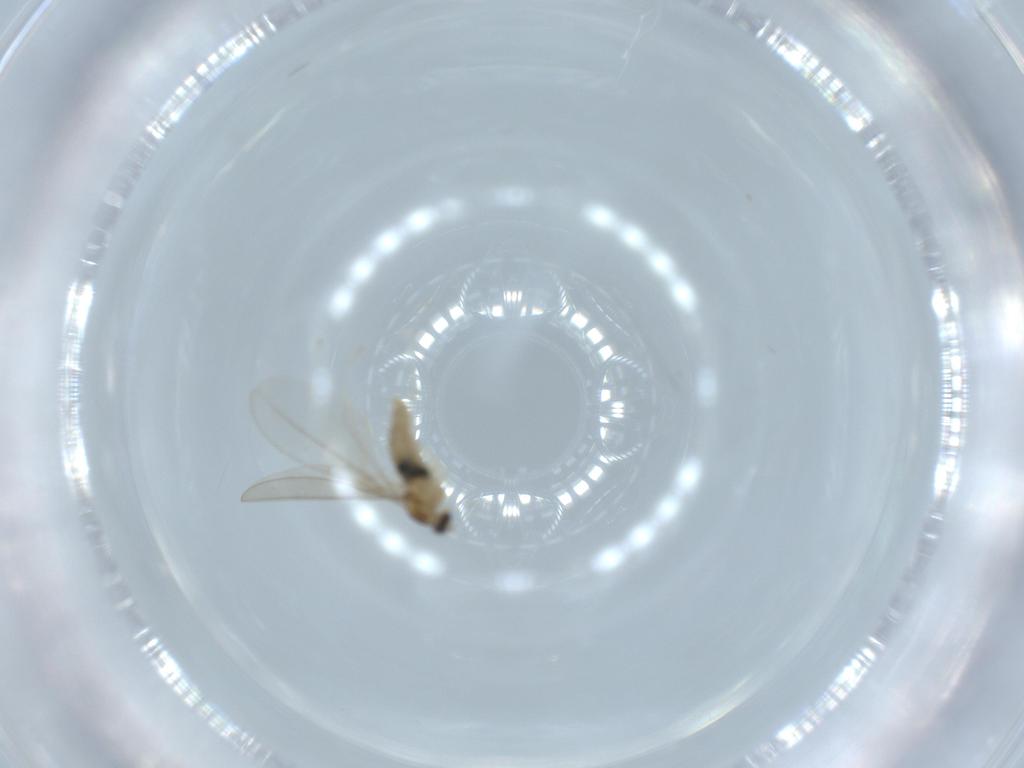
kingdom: Animalia
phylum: Arthropoda
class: Insecta
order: Diptera
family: Cecidomyiidae
